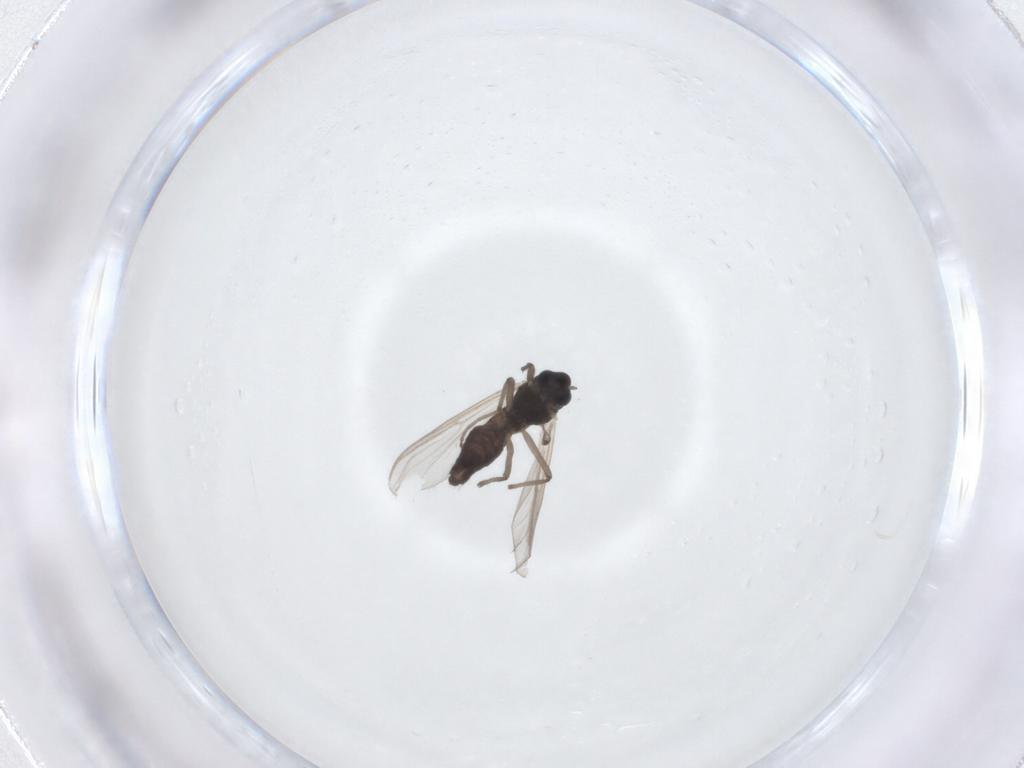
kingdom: Animalia
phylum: Arthropoda
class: Insecta
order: Diptera
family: Chironomidae
